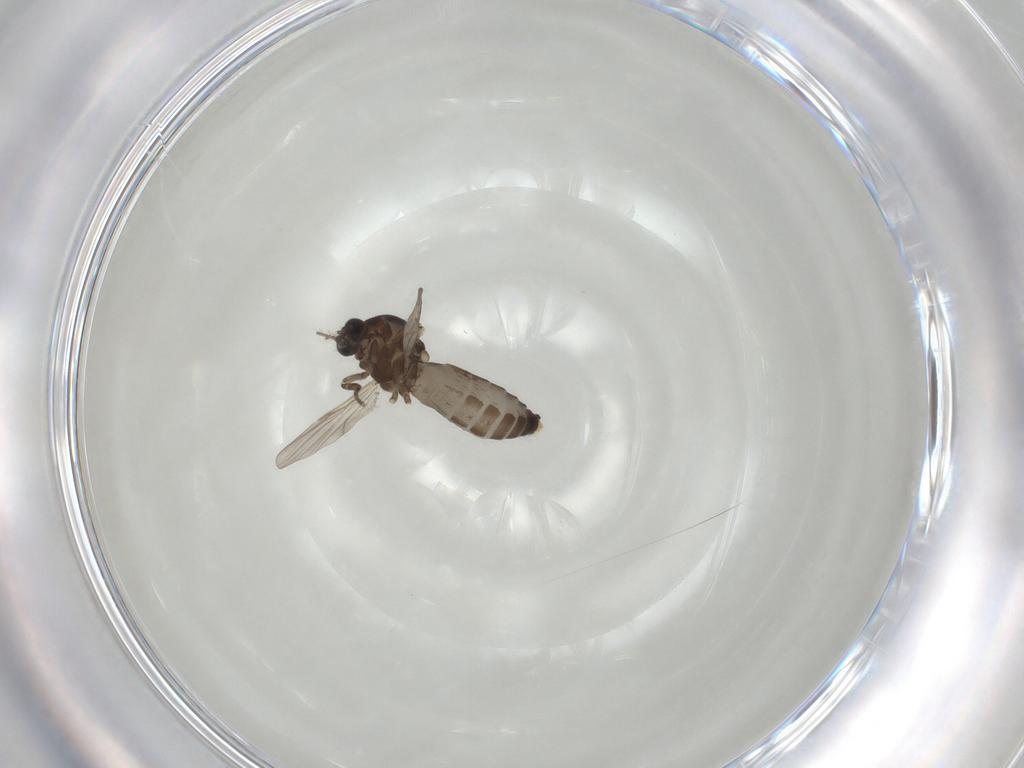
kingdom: Animalia
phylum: Arthropoda
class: Insecta
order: Diptera
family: Ceratopogonidae
